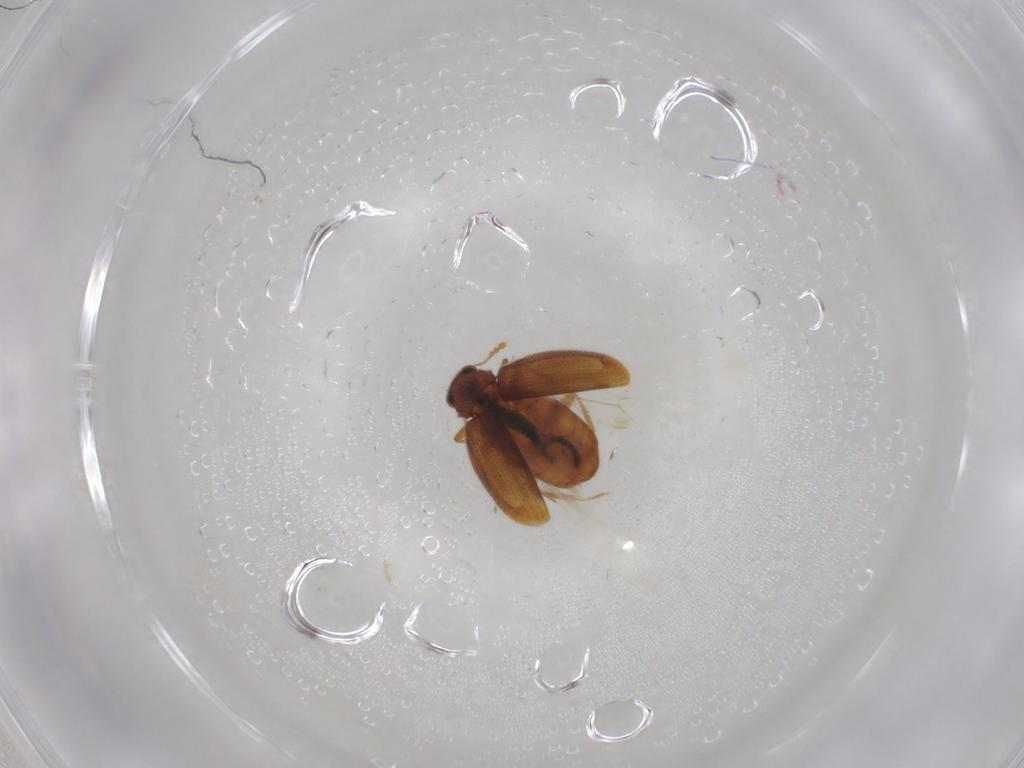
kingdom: Animalia
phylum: Arthropoda
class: Insecta
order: Coleoptera
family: Latridiidae
